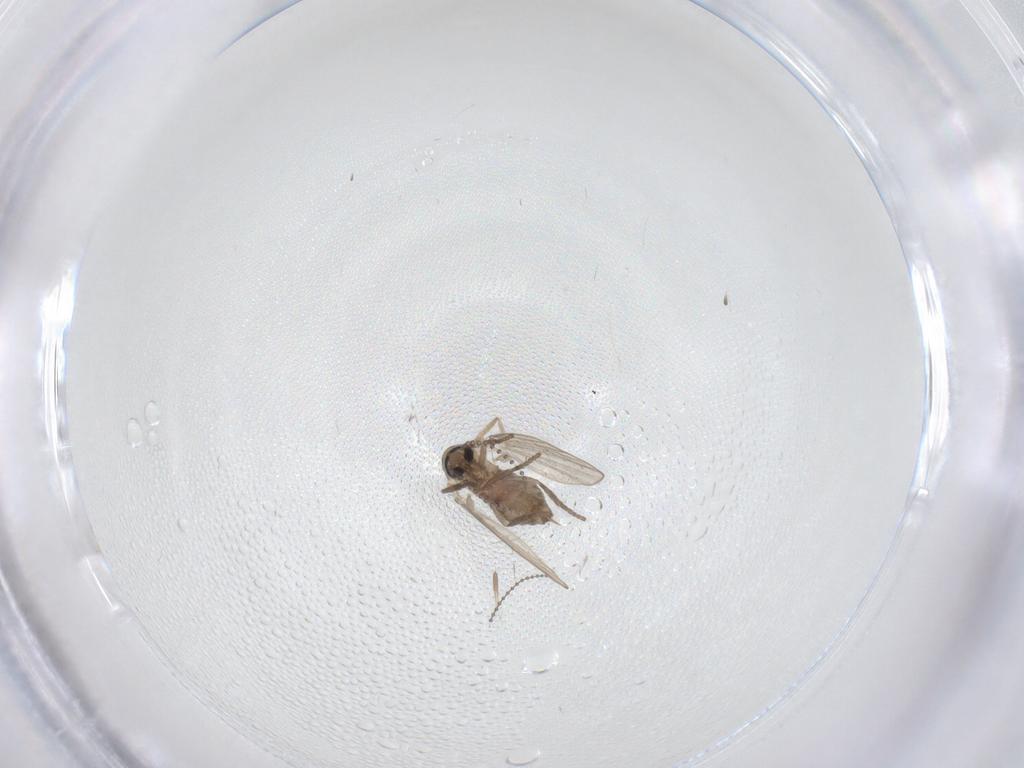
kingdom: Animalia
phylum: Arthropoda
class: Insecta
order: Diptera
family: Psychodidae
